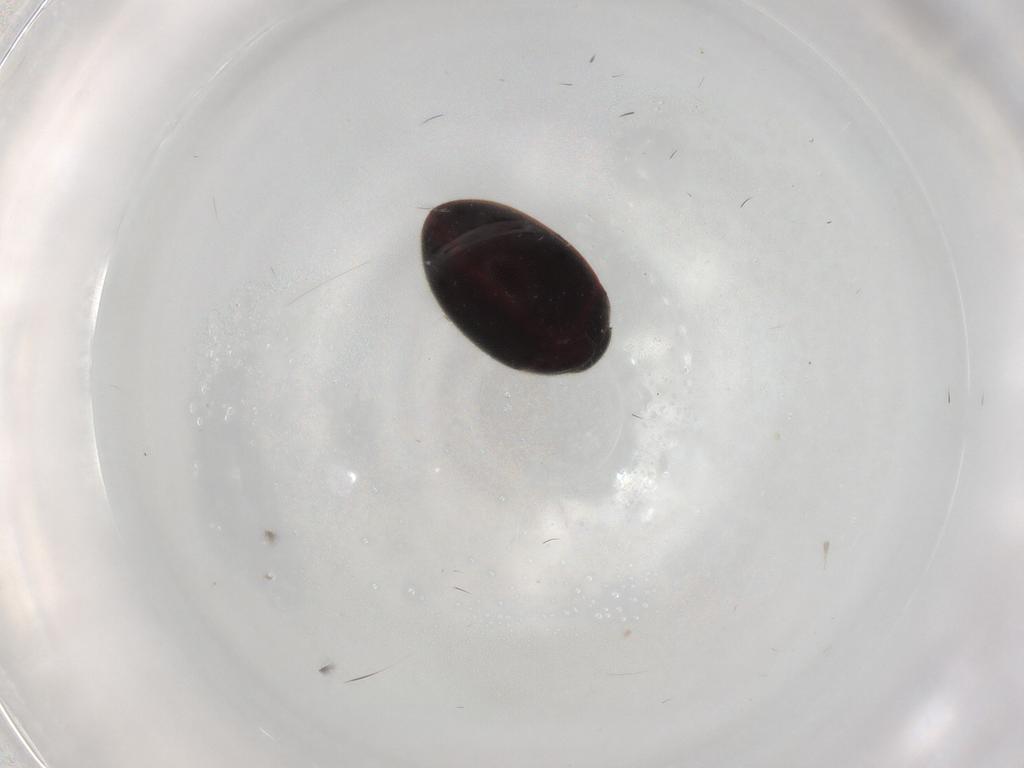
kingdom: Animalia
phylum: Arthropoda
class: Insecta
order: Coleoptera
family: Limnichidae
